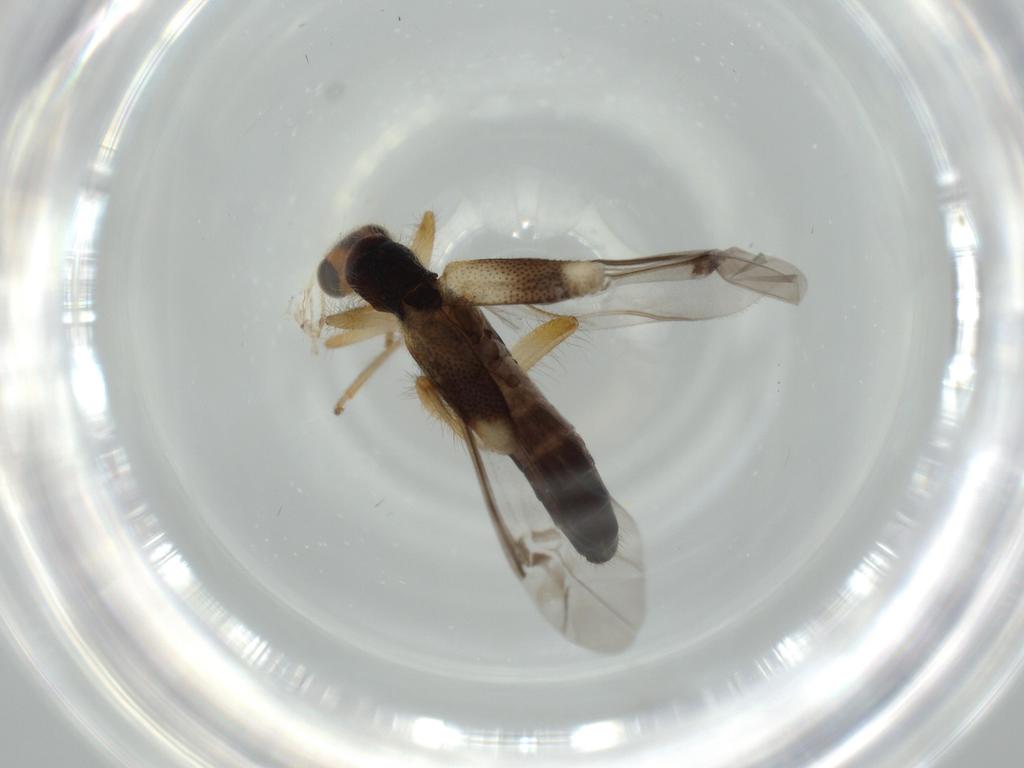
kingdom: Animalia
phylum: Arthropoda
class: Insecta
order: Coleoptera
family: Cleridae
